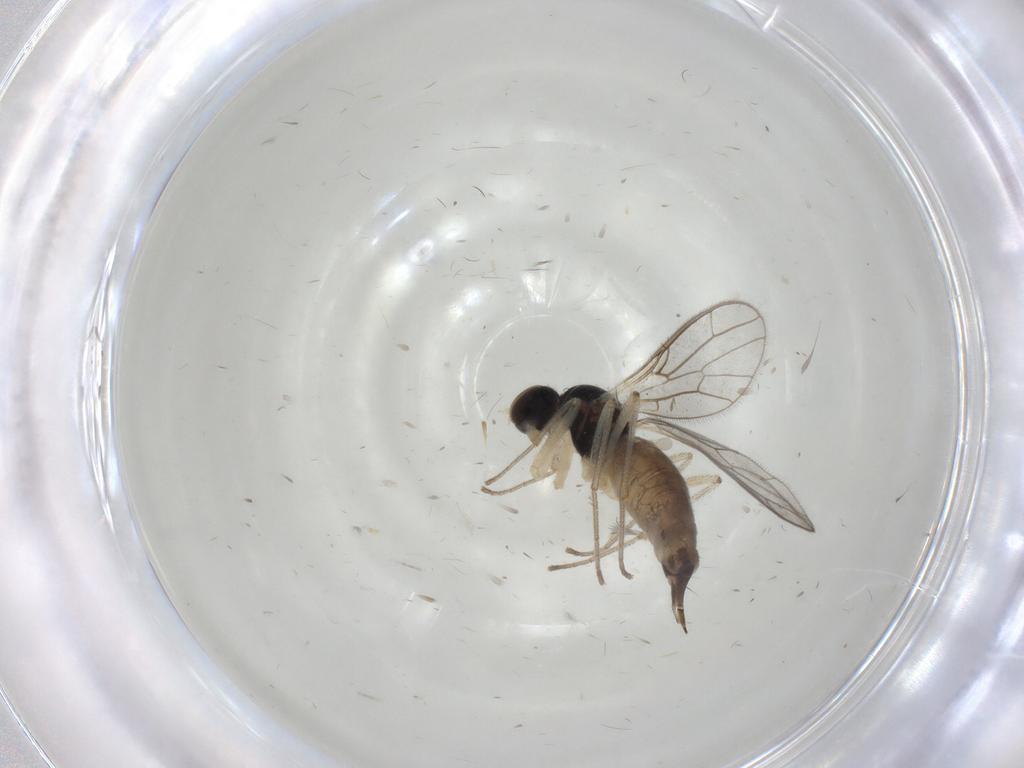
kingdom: Animalia
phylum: Arthropoda
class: Insecta
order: Diptera
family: Empididae
